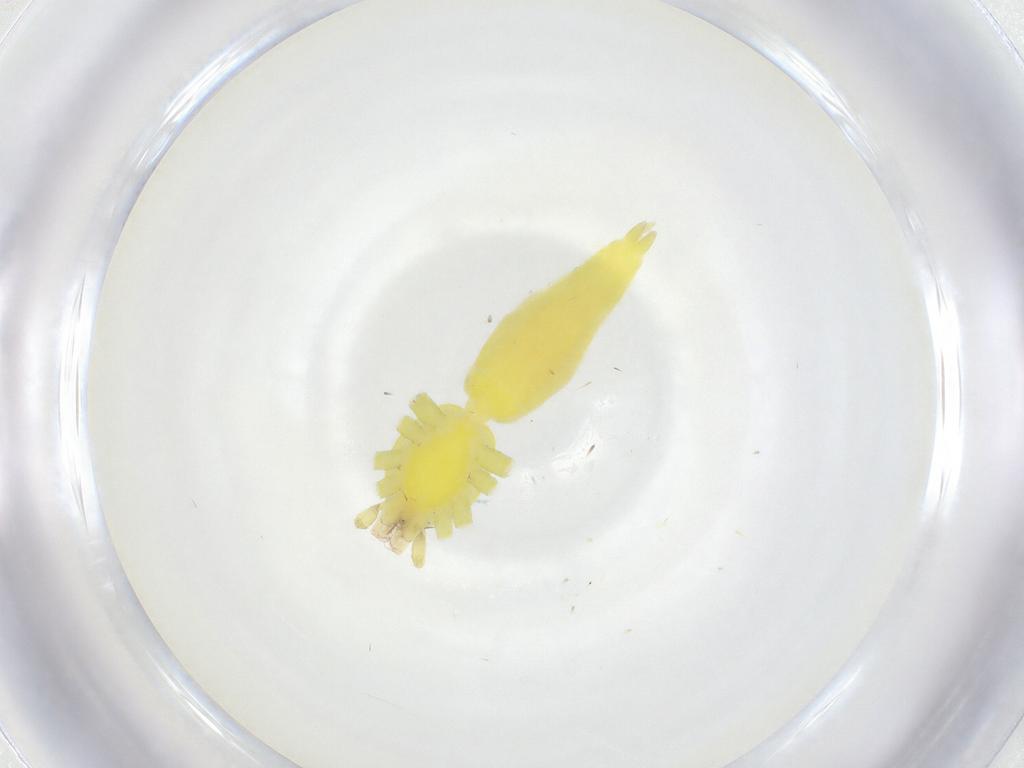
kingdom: Animalia
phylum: Arthropoda
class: Arachnida
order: Araneae
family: Clubionidae
